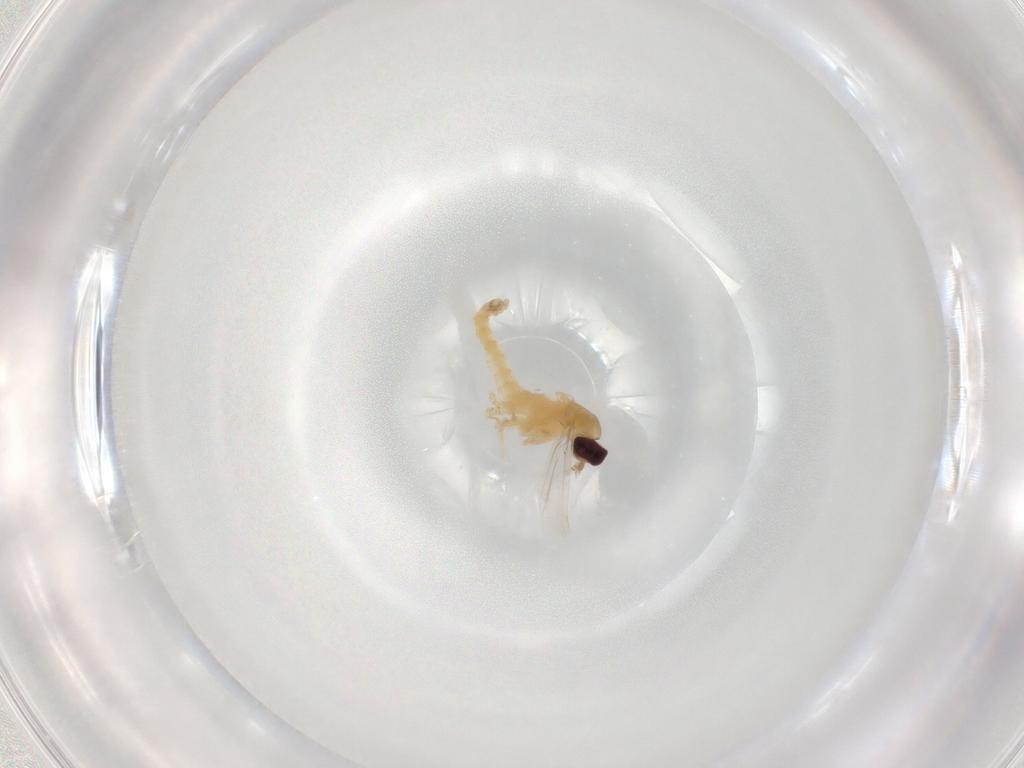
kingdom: Animalia
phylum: Arthropoda
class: Insecta
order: Diptera
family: Cecidomyiidae
